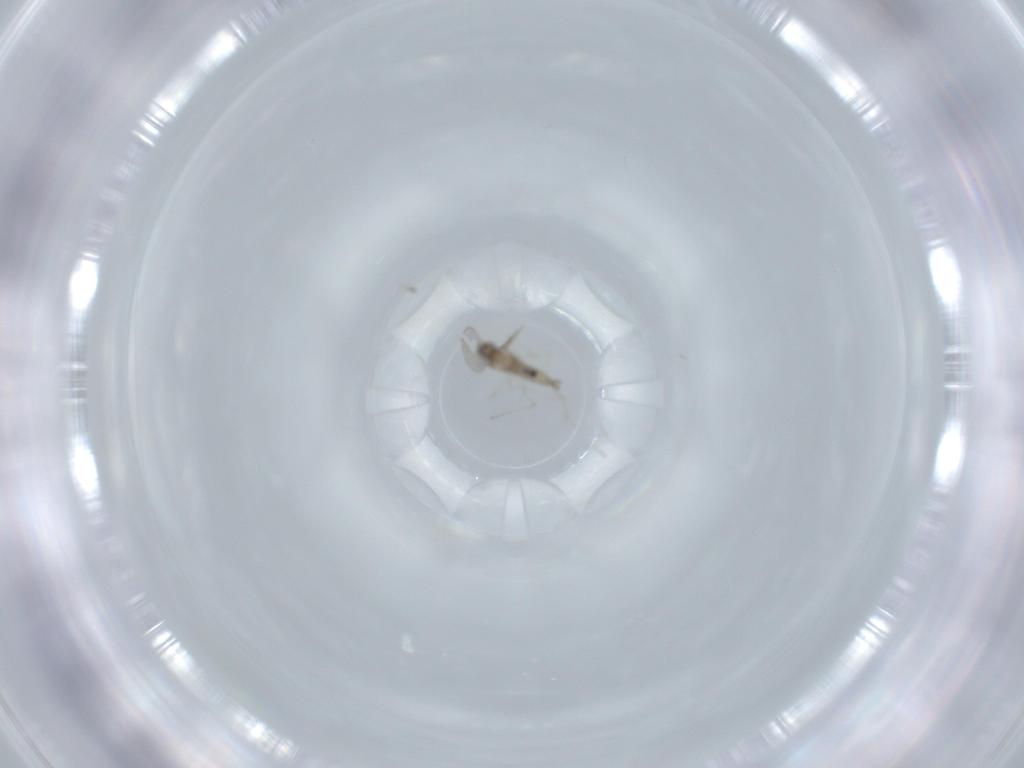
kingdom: Animalia
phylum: Arthropoda
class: Insecta
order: Diptera
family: Cecidomyiidae
